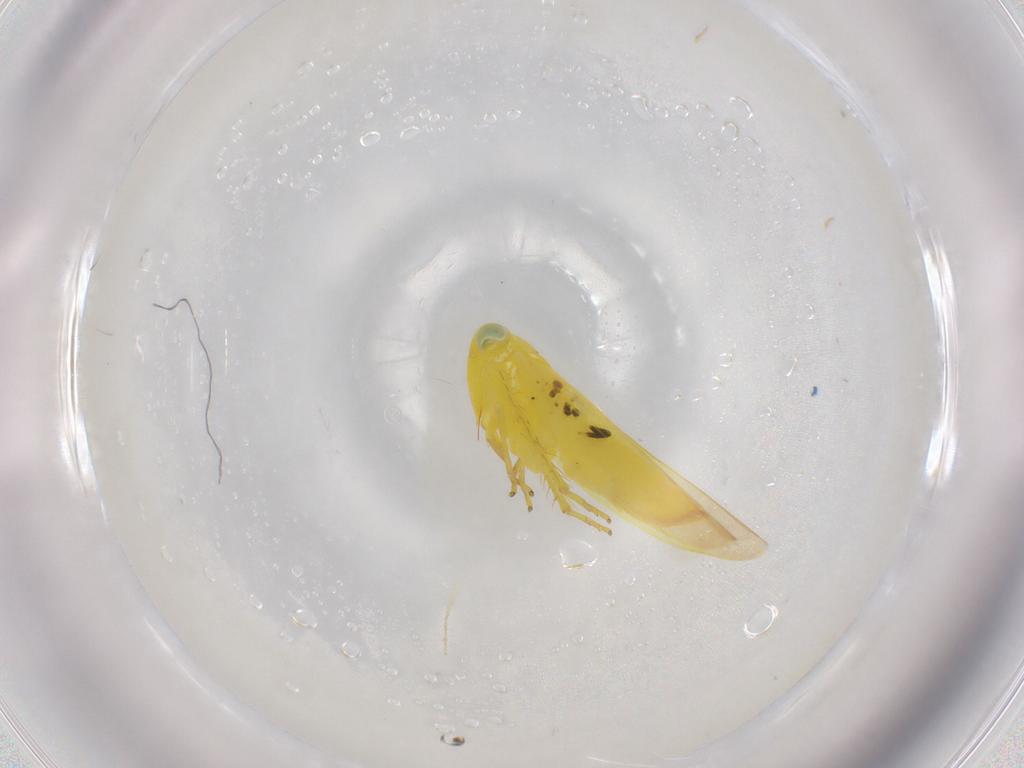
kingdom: Animalia
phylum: Arthropoda
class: Insecta
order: Hemiptera
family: Cicadellidae
